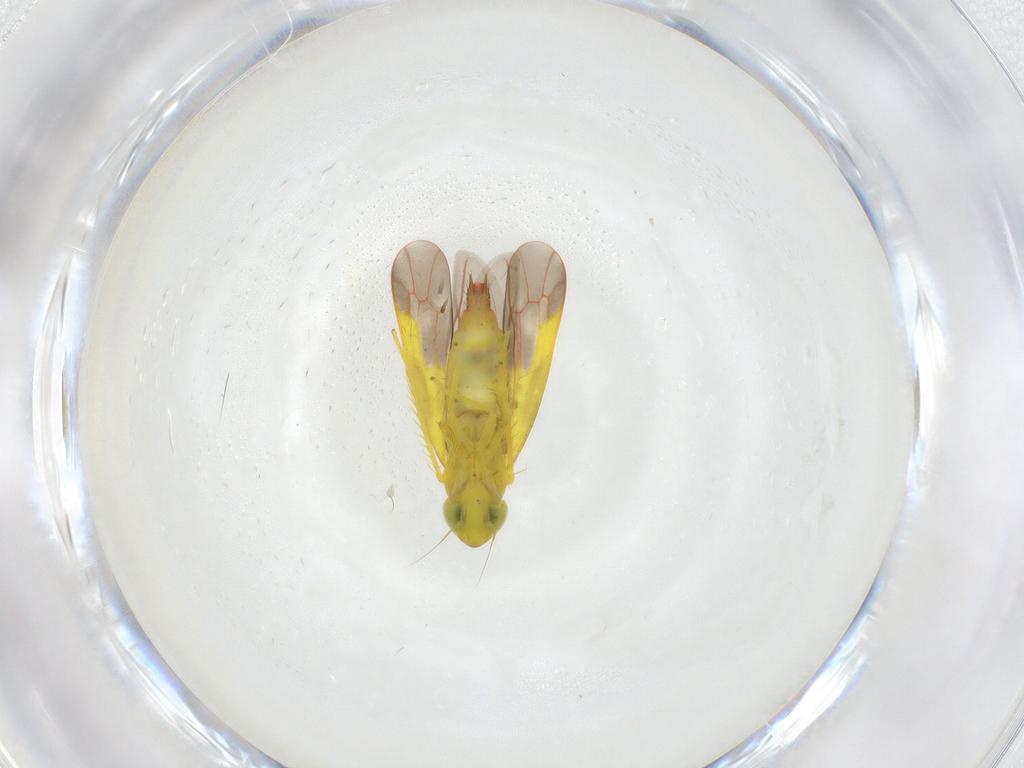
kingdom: Animalia
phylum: Arthropoda
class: Insecta
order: Hemiptera
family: Cicadellidae
